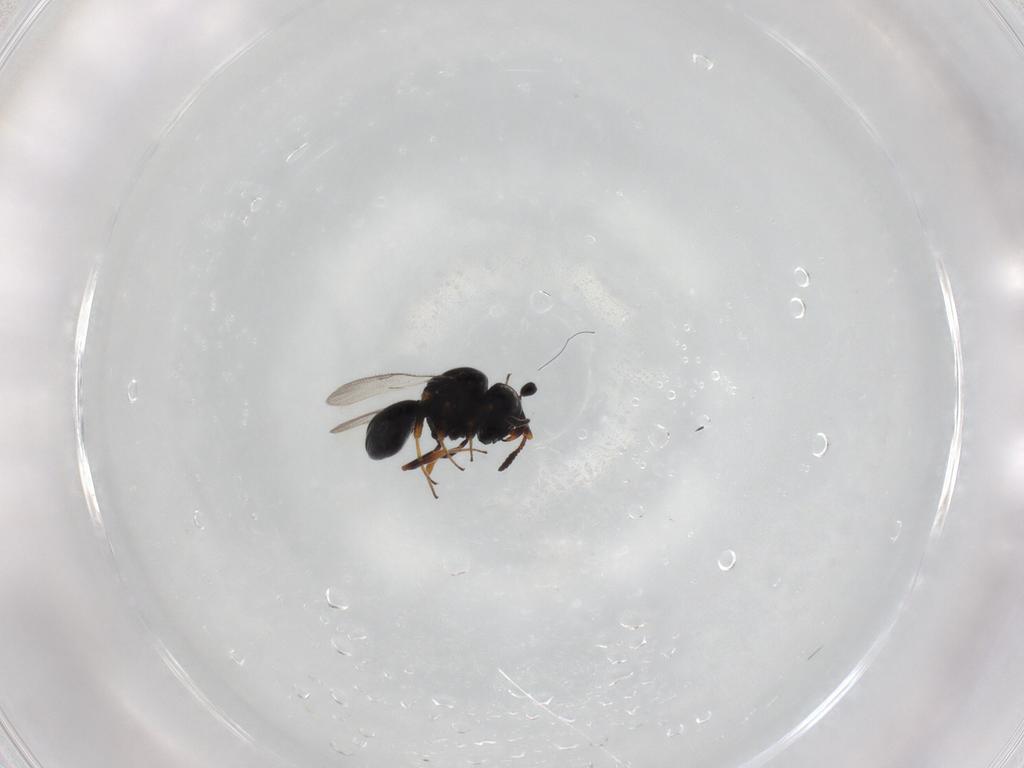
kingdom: Animalia
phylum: Arthropoda
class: Insecta
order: Hymenoptera
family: Scelionidae
